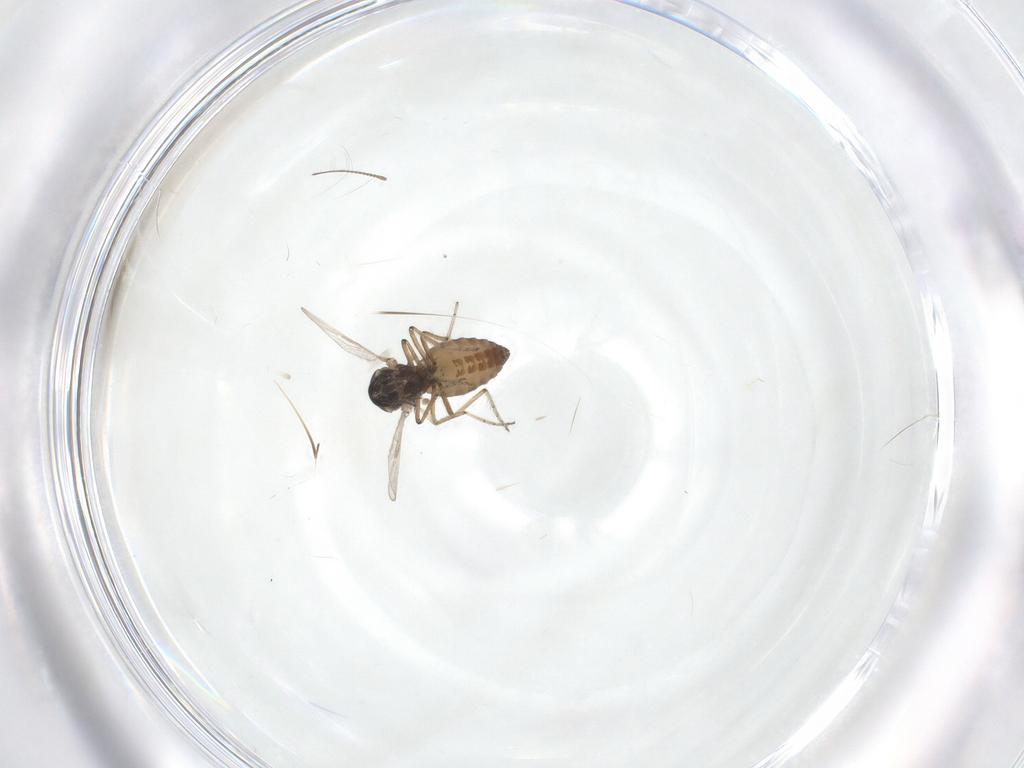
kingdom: Animalia
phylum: Arthropoda
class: Insecta
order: Diptera
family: Ceratopogonidae
